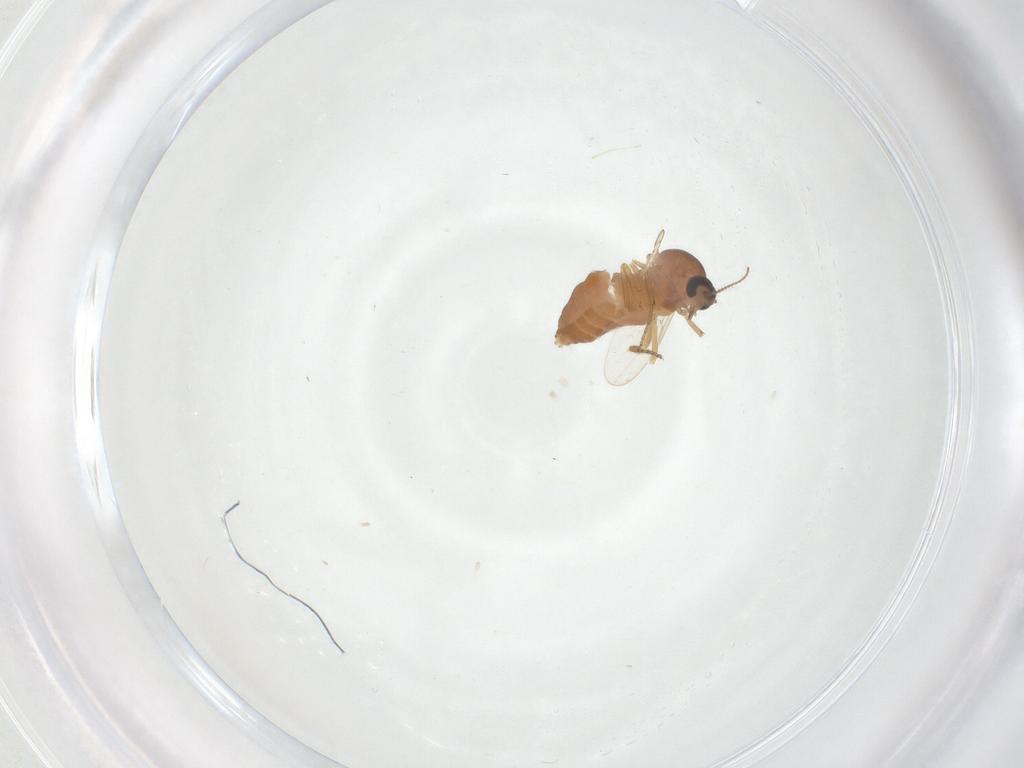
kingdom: Animalia
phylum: Arthropoda
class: Insecta
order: Diptera
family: Ceratopogonidae
